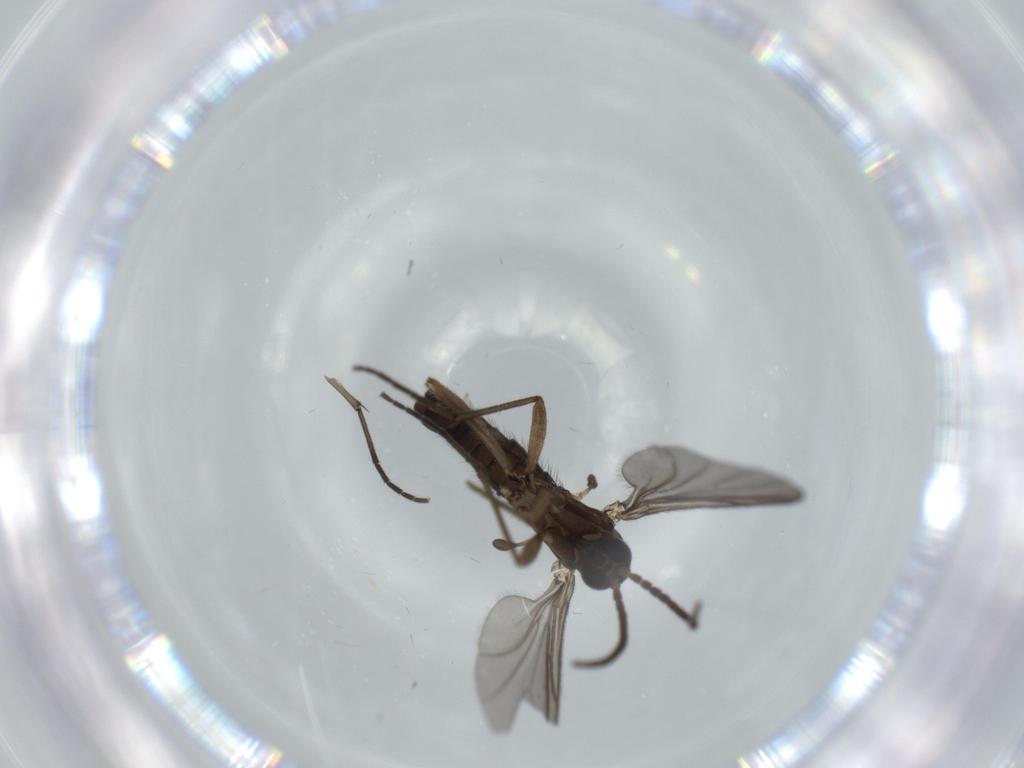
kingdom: Animalia
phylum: Arthropoda
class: Insecta
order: Diptera
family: Sciaridae
